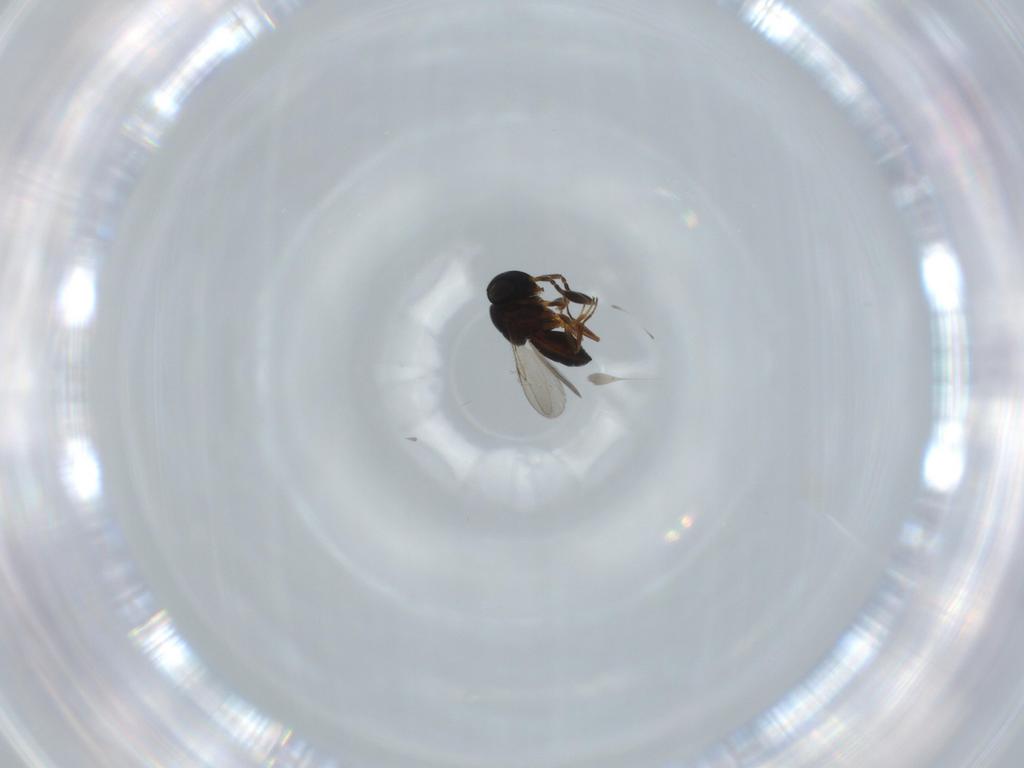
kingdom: Animalia
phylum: Arthropoda
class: Insecta
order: Hymenoptera
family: Scelionidae
